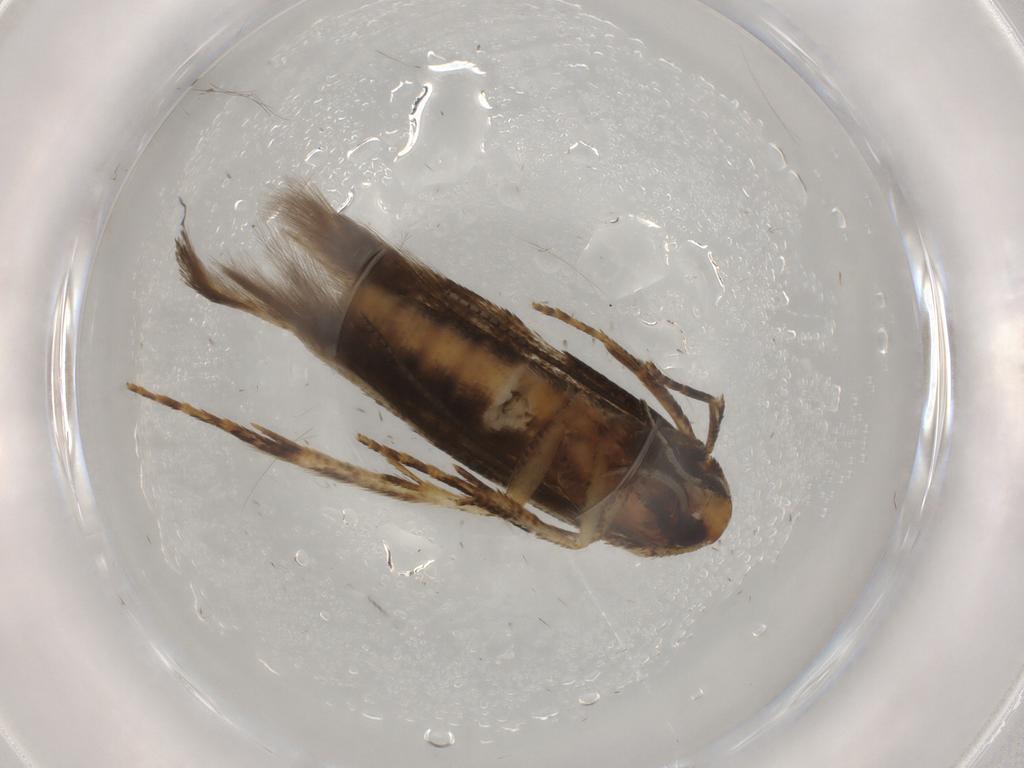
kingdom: Animalia
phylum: Arthropoda
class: Insecta
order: Lepidoptera
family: Cosmopterigidae
